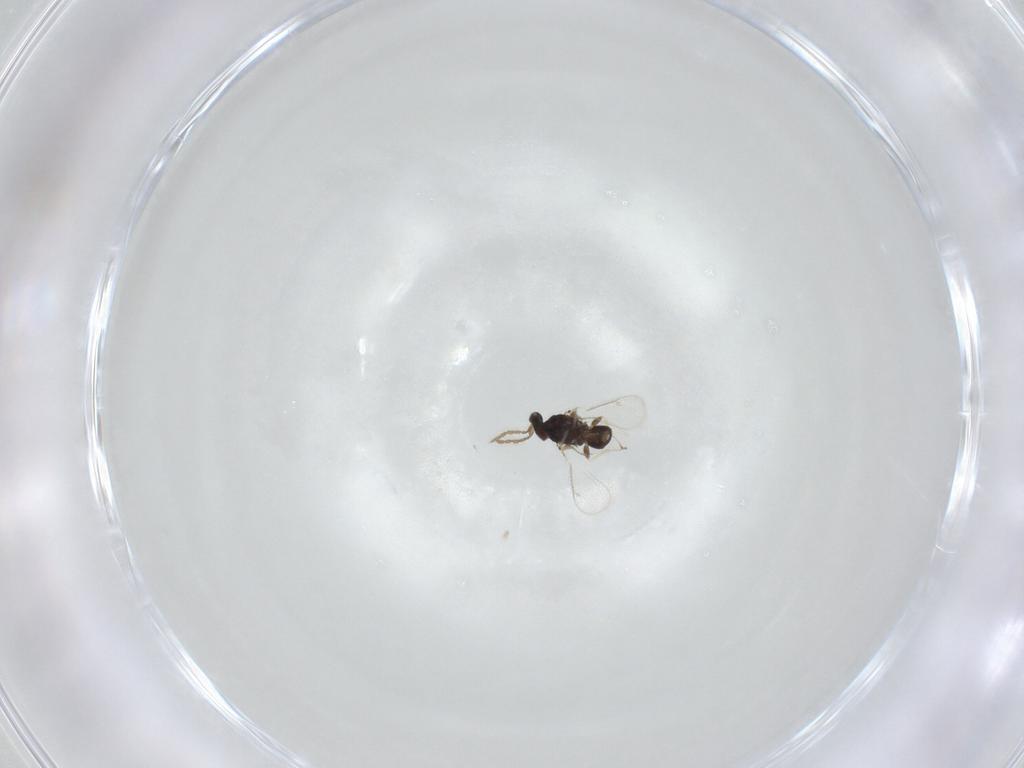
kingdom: Animalia
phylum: Arthropoda
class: Insecta
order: Hymenoptera
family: Eulophidae
